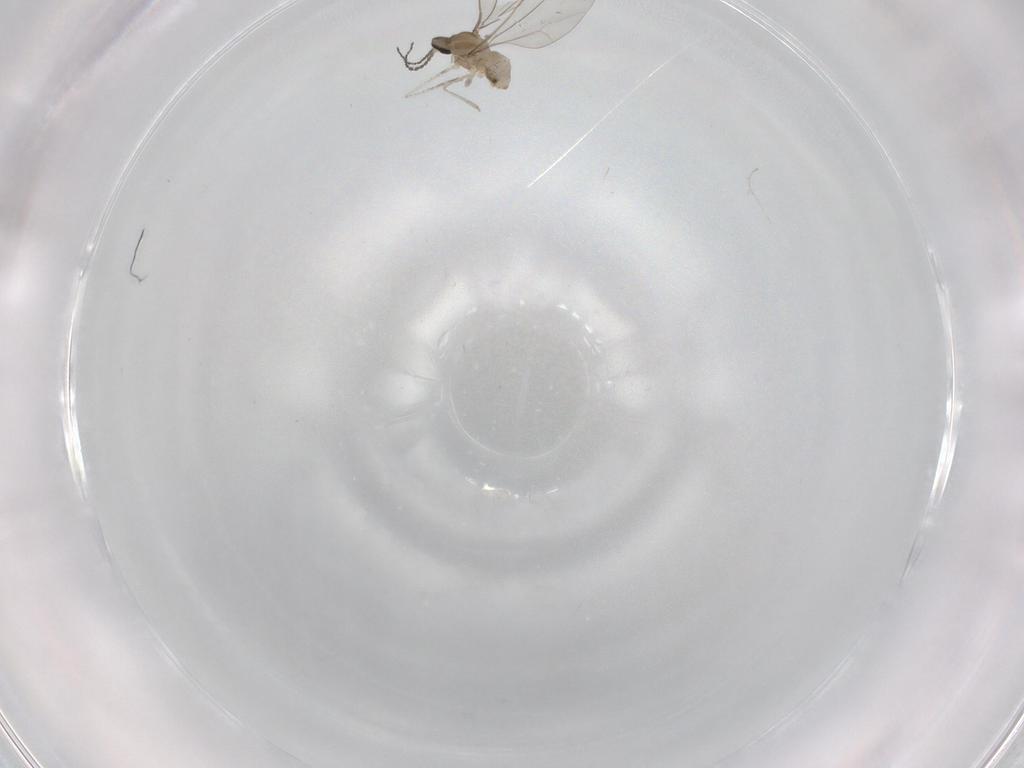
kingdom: Animalia
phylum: Arthropoda
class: Insecta
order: Diptera
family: Cecidomyiidae
